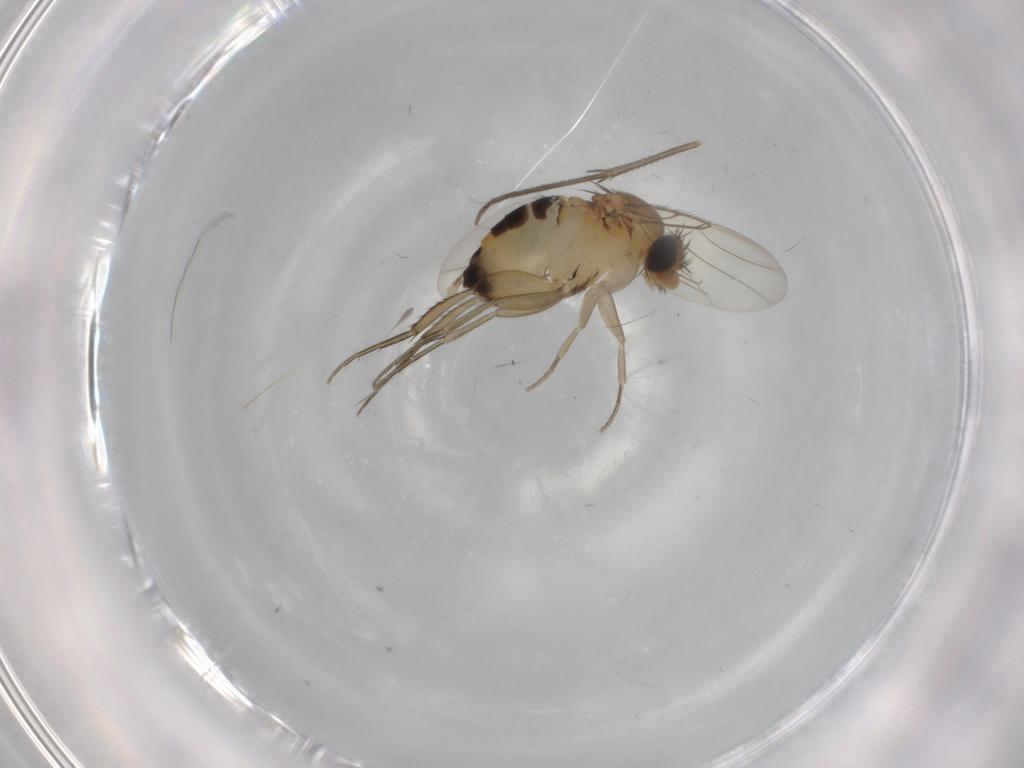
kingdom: Animalia
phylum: Arthropoda
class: Insecta
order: Diptera
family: Phoridae
